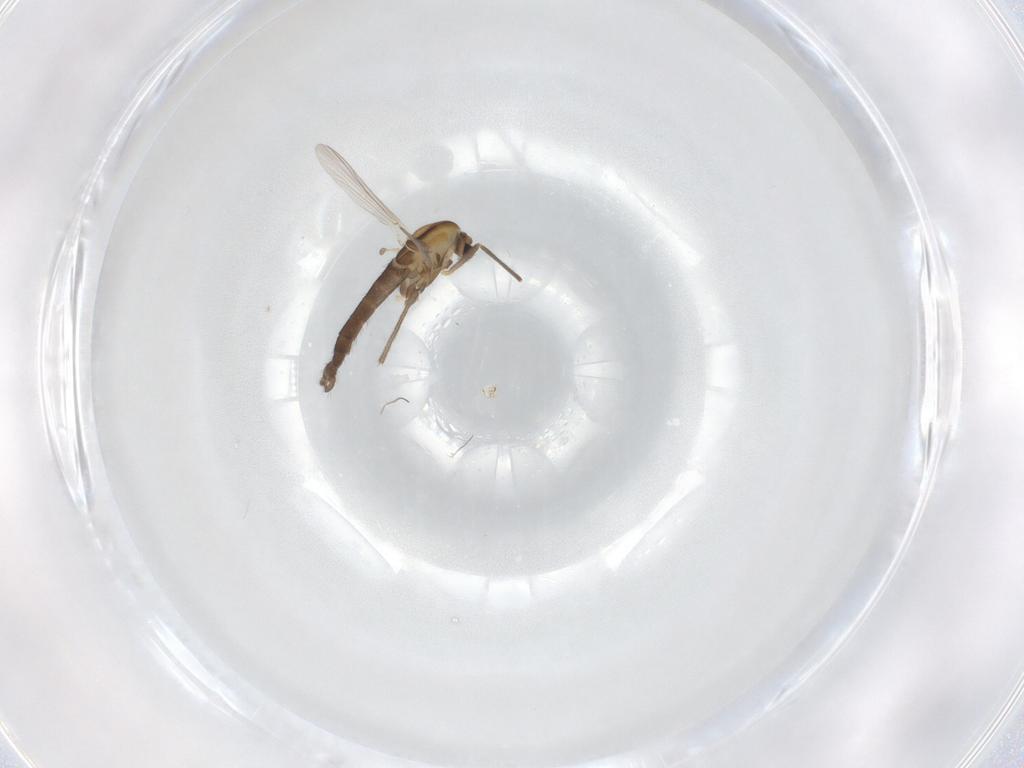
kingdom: Animalia
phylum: Arthropoda
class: Insecta
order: Diptera
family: Chironomidae
